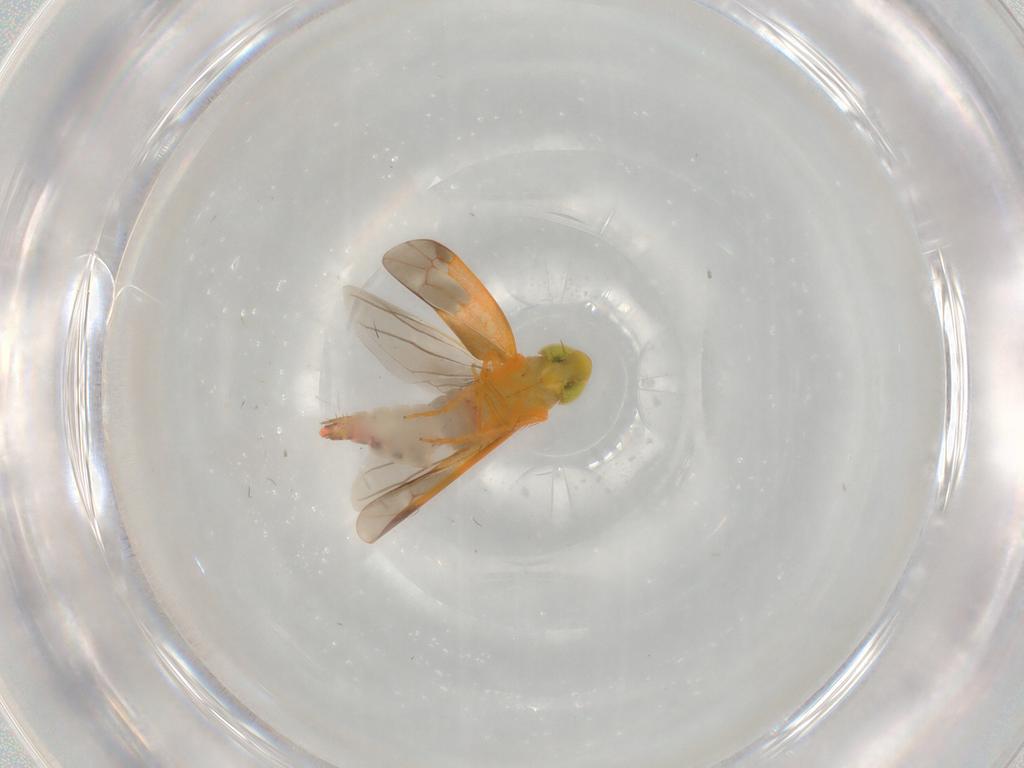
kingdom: Animalia
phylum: Arthropoda
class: Insecta
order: Hemiptera
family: Cicadellidae
